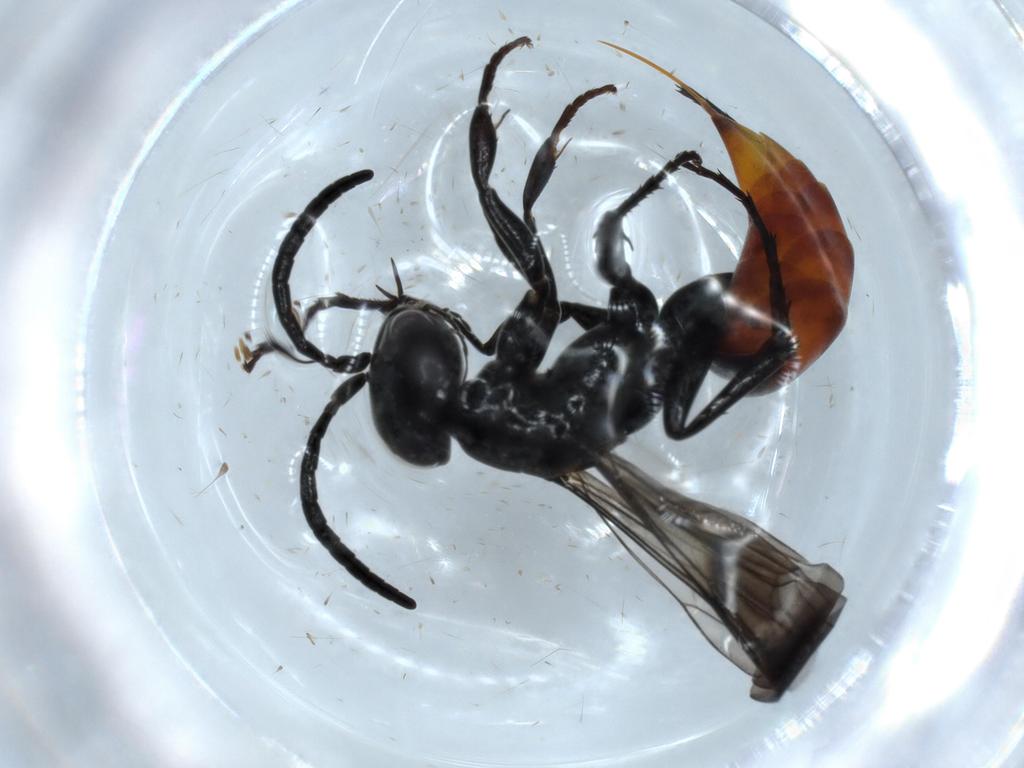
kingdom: Animalia
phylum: Arthropoda
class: Insecta
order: Hymenoptera
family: Pompilidae
